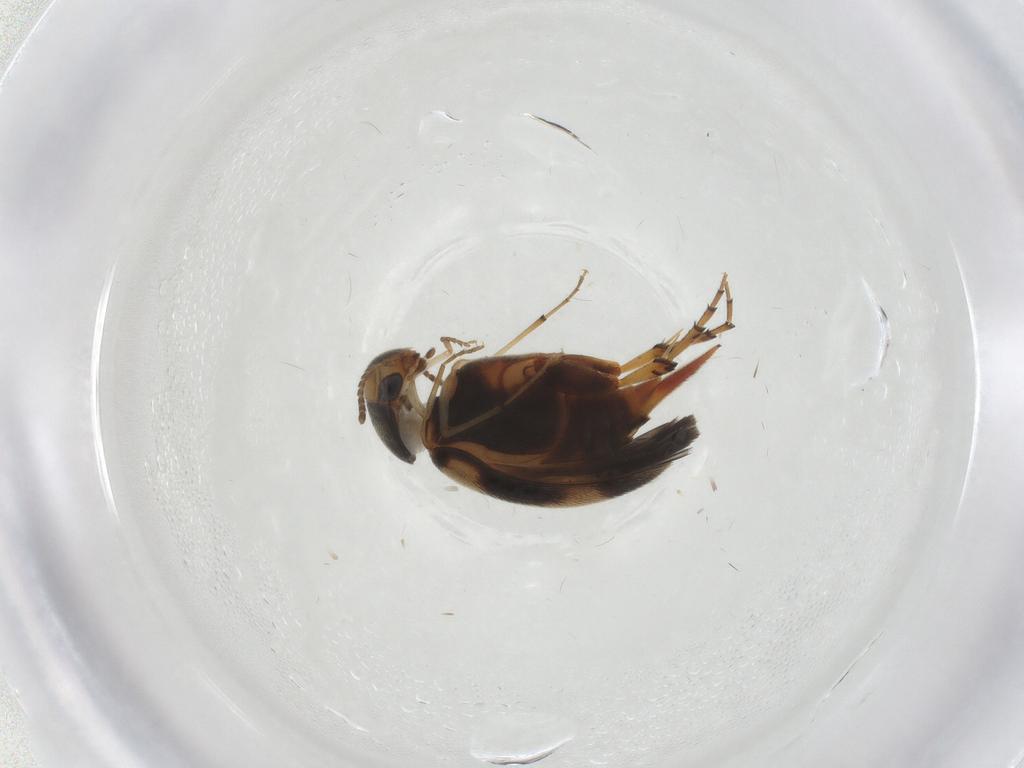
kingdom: Animalia
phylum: Arthropoda
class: Insecta
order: Coleoptera
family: Mordellidae
